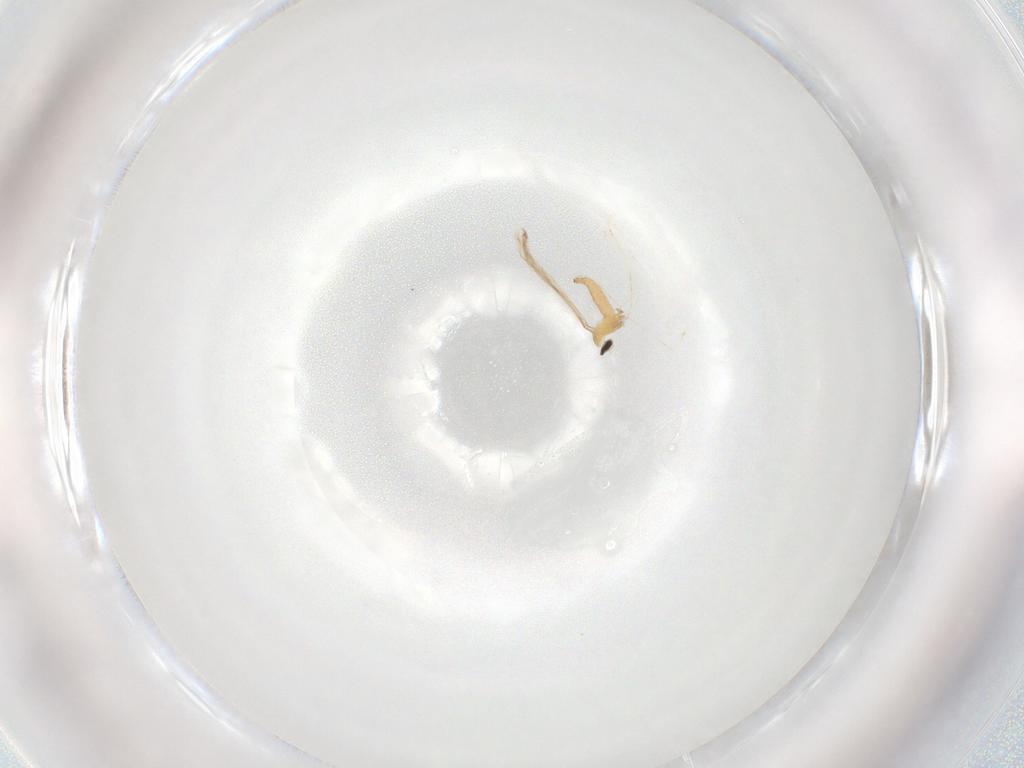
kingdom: Animalia
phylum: Arthropoda
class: Insecta
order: Diptera
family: Cecidomyiidae
